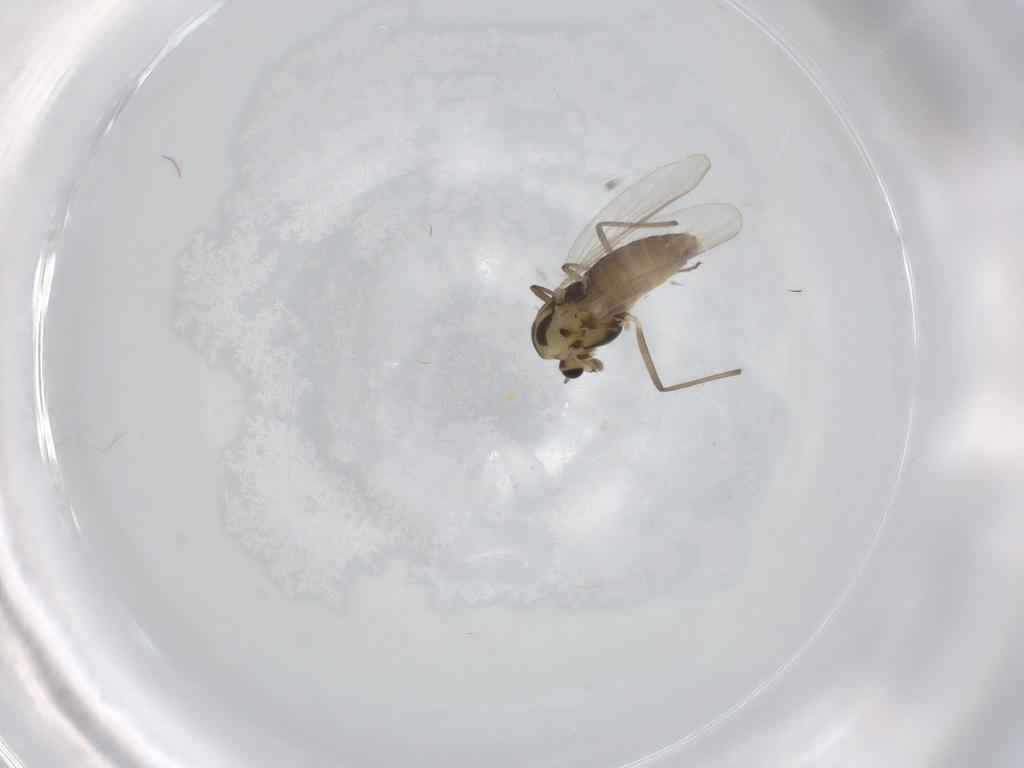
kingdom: Animalia
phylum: Arthropoda
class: Insecta
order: Diptera
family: Chironomidae
